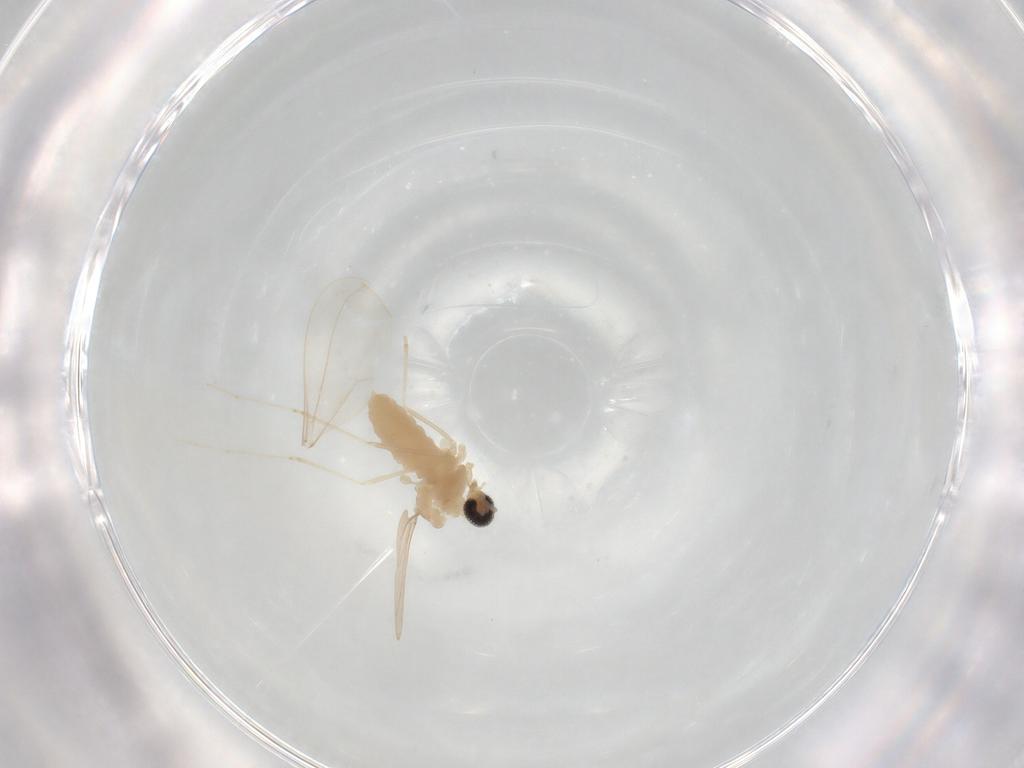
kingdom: Animalia
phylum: Arthropoda
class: Insecta
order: Diptera
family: Cecidomyiidae
